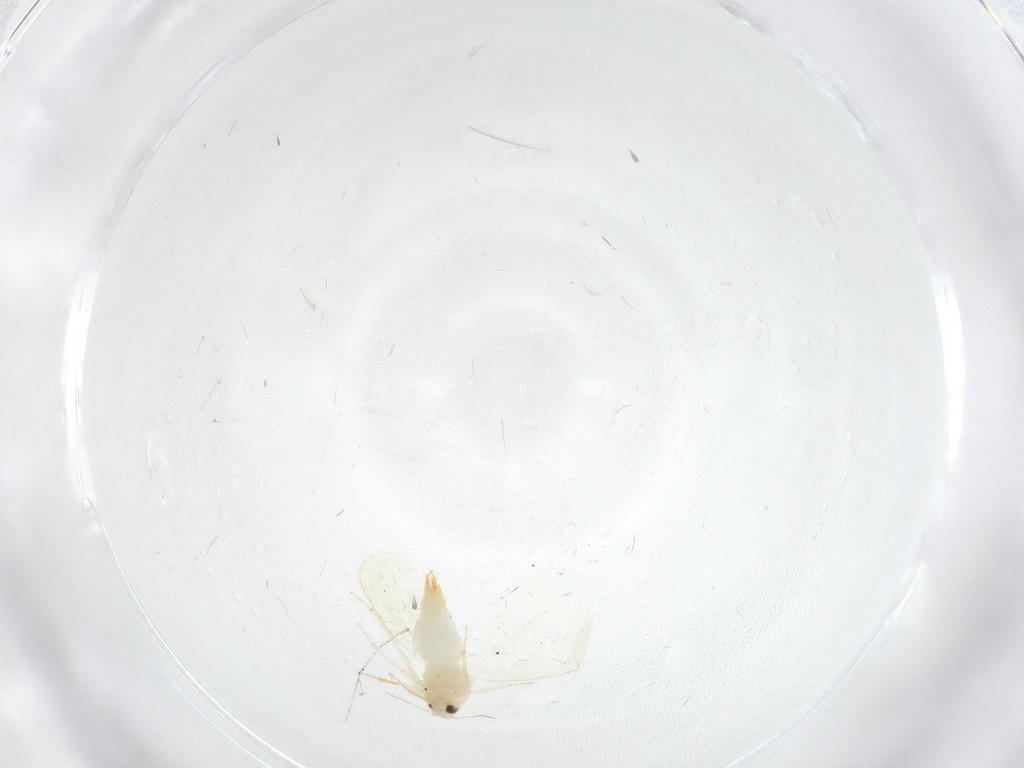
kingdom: Animalia
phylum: Arthropoda
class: Insecta
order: Hemiptera
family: Aleyrodidae
